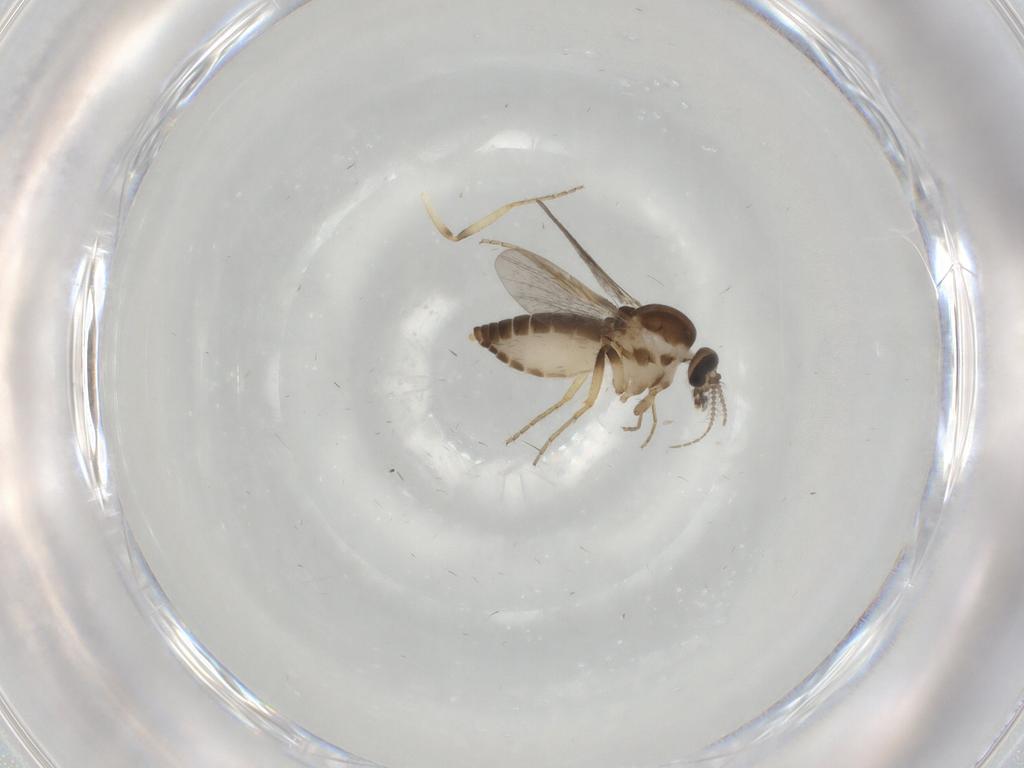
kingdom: Animalia
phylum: Arthropoda
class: Insecta
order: Diptera
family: Ceratopogonidae
